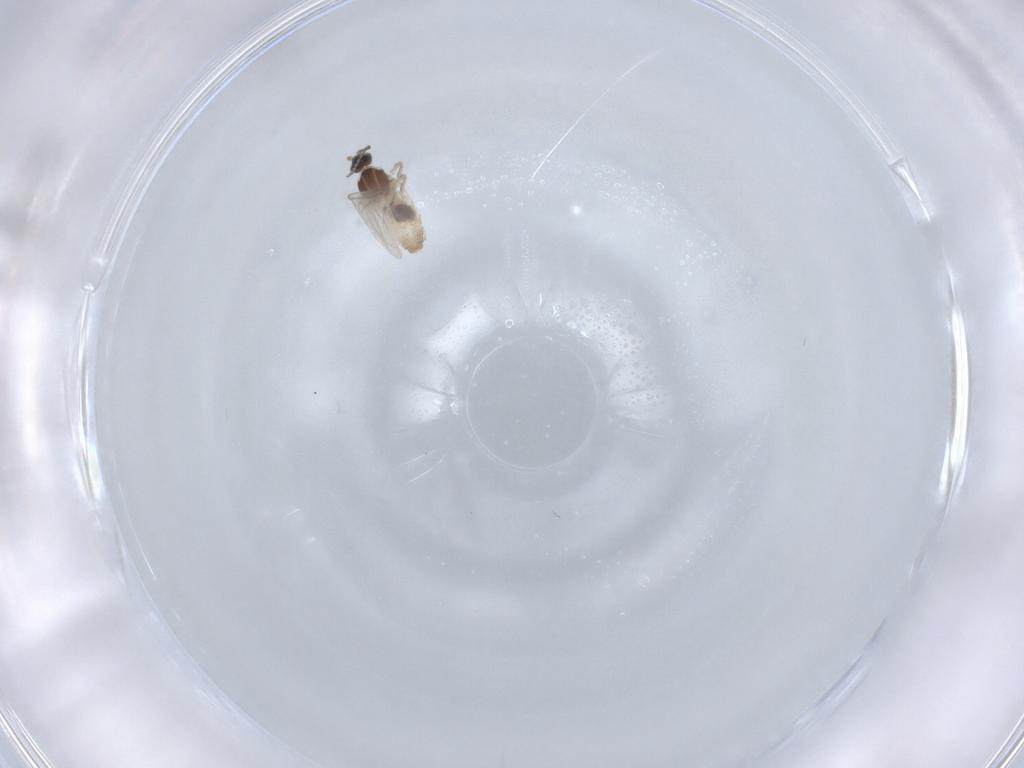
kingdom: Animalia
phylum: Arthropoda
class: Insecta
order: Diptera
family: Cecidomyiidae
